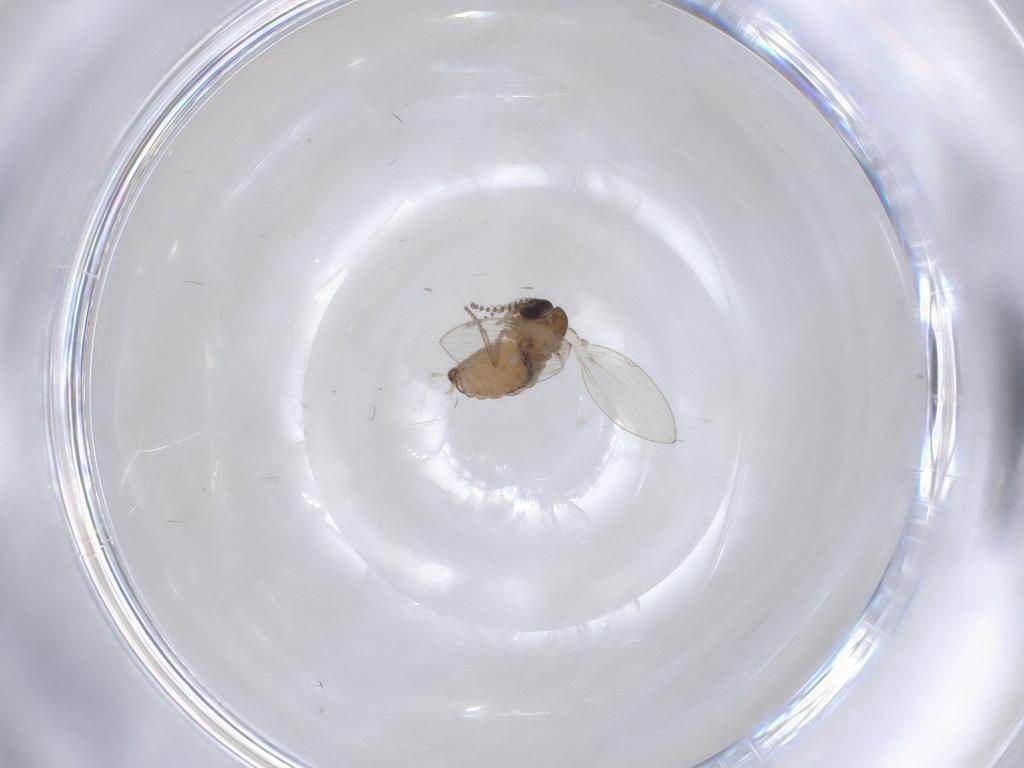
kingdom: Animalia
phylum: Arthropoda
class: Insecta
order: Diptera
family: Psychodidae
